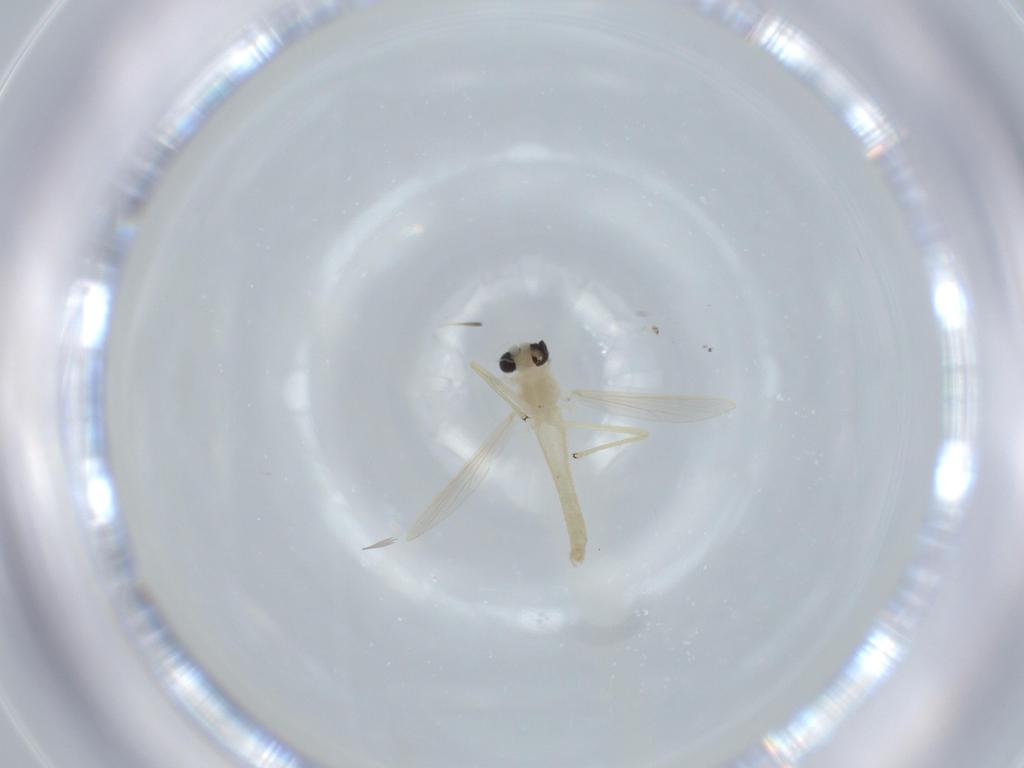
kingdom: Animalia
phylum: Arthropoda
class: Insecta
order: Diptera
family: Chironomidae
